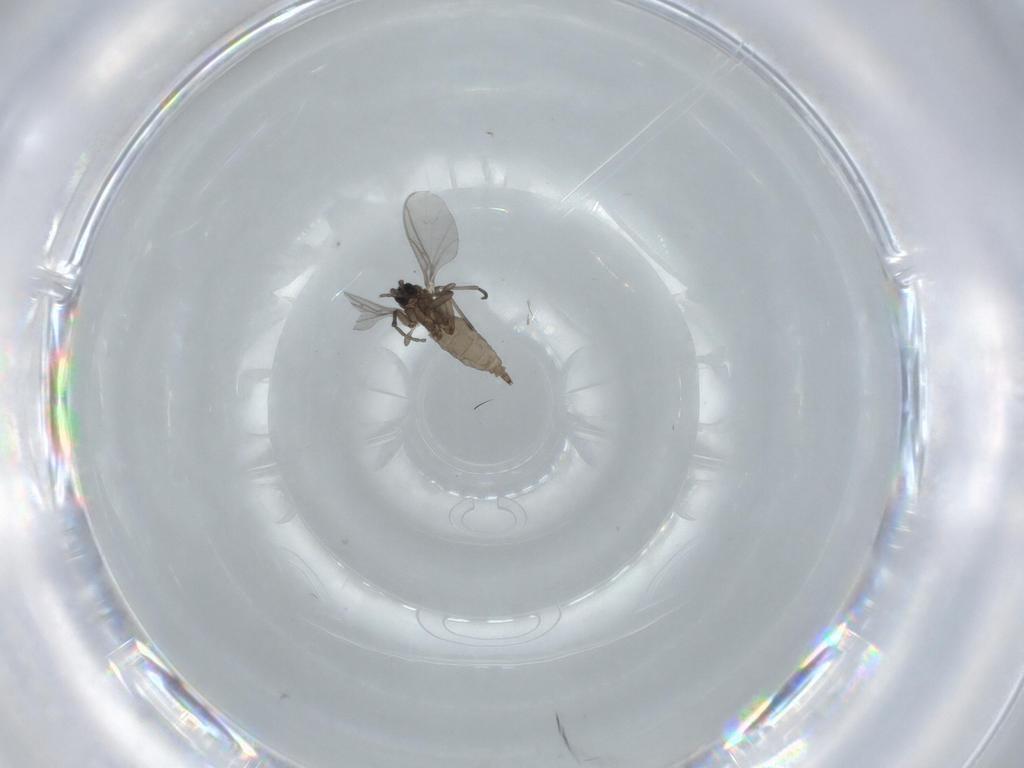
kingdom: Animalia
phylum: Arthropoda
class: Insecta
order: Diptera
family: Sciaridae
